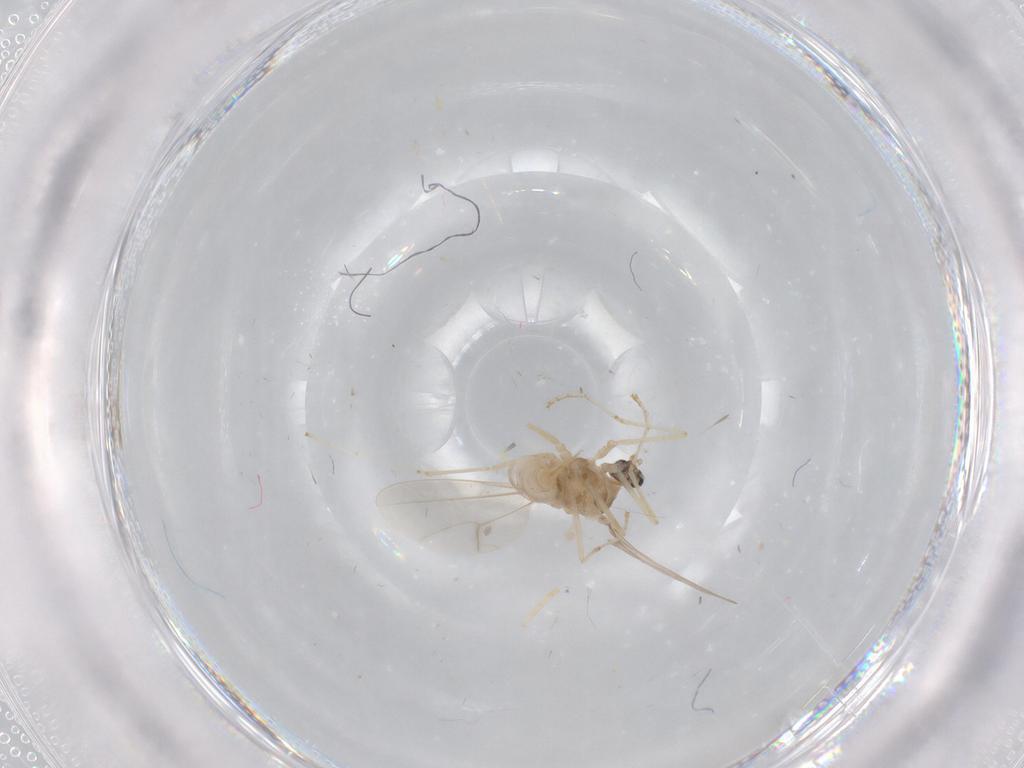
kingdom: Animalia
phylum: Arthropoda
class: Insecta
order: Diptera
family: Cecidomyiidae
